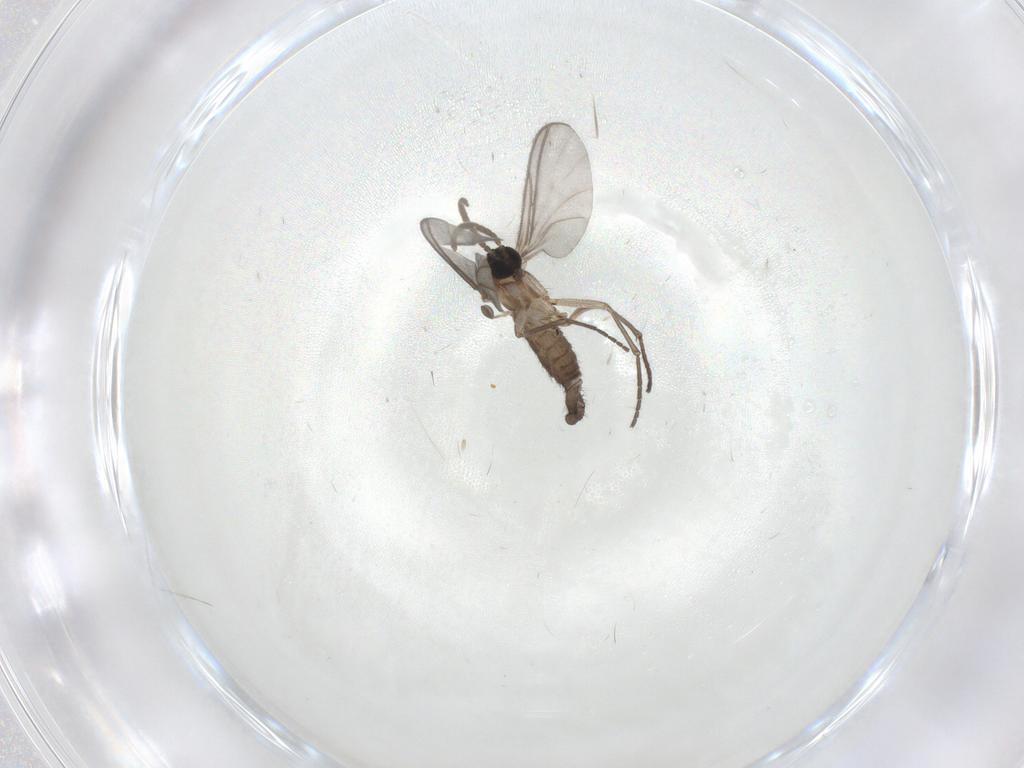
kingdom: Animalia
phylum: Arthropoda
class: Insecta
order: Diptera
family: Cecidomyiidae
